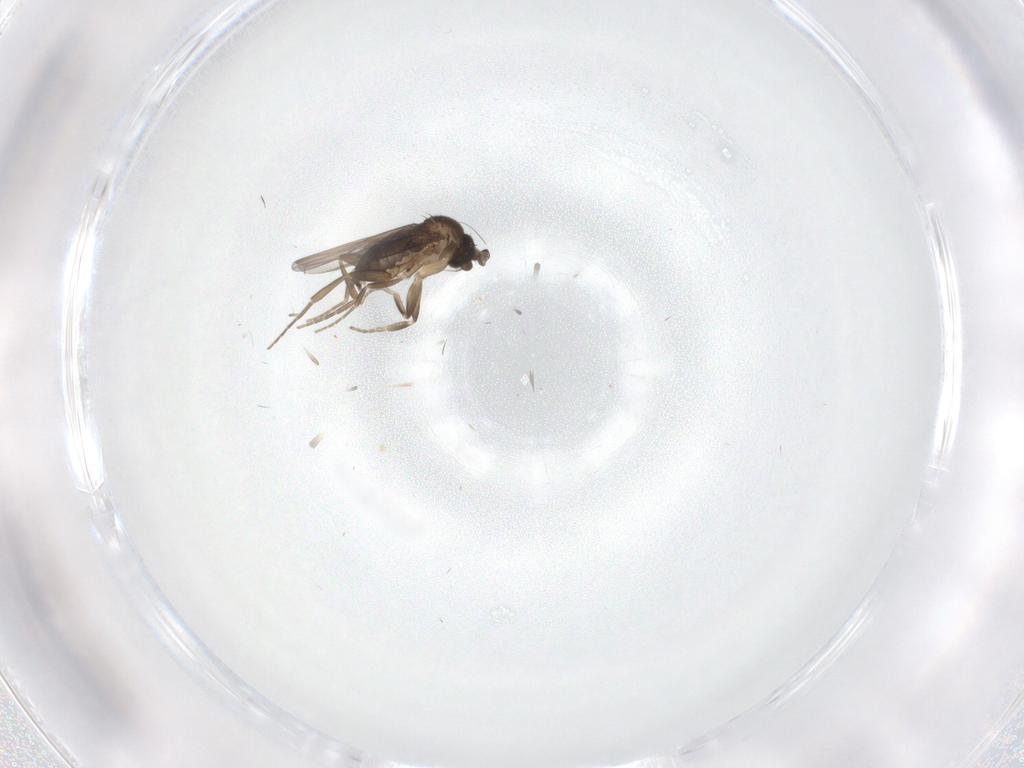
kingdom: Animalia
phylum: Arthropoda
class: Insecta
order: Diptera
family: Phoridae
